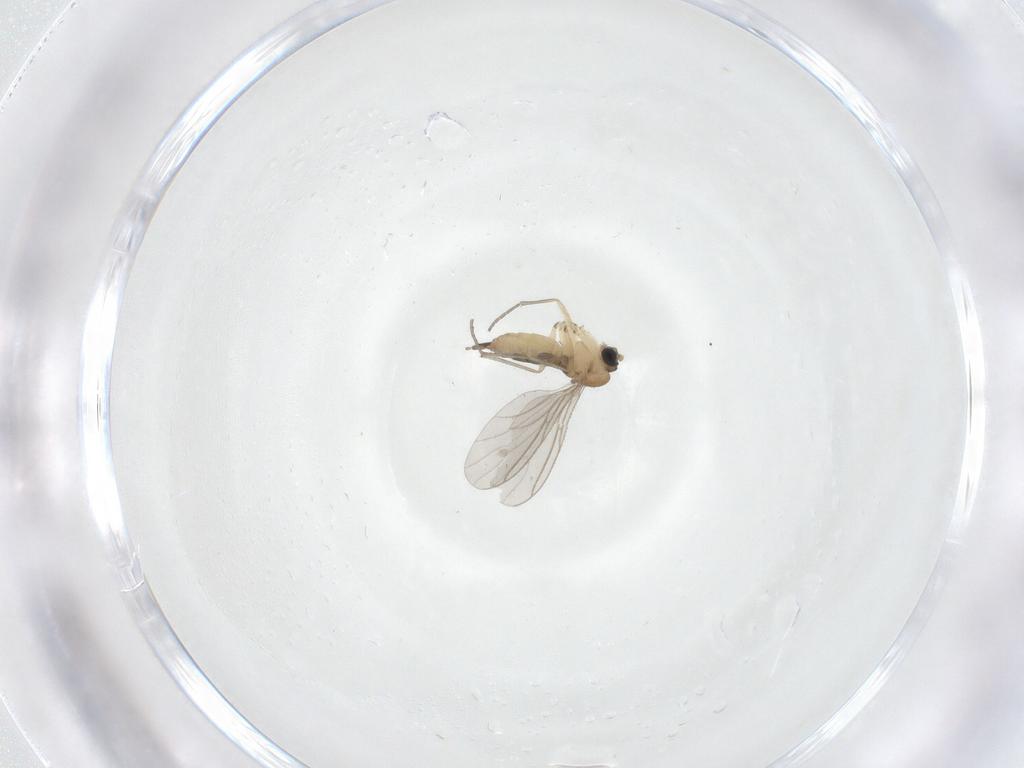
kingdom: Animalia
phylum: Arthropoda
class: Insecta
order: Diptera
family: Sciaridae
